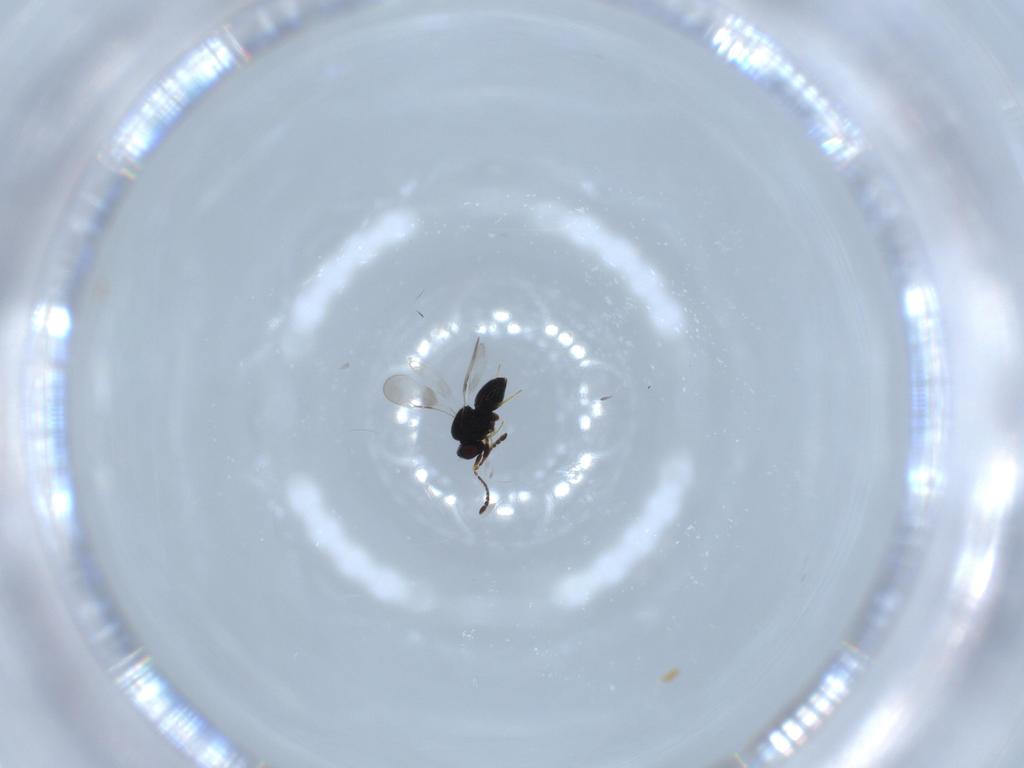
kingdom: Animalia
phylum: Arthropoda
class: Insecta
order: Hymenoptera
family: Ceraphronidae
